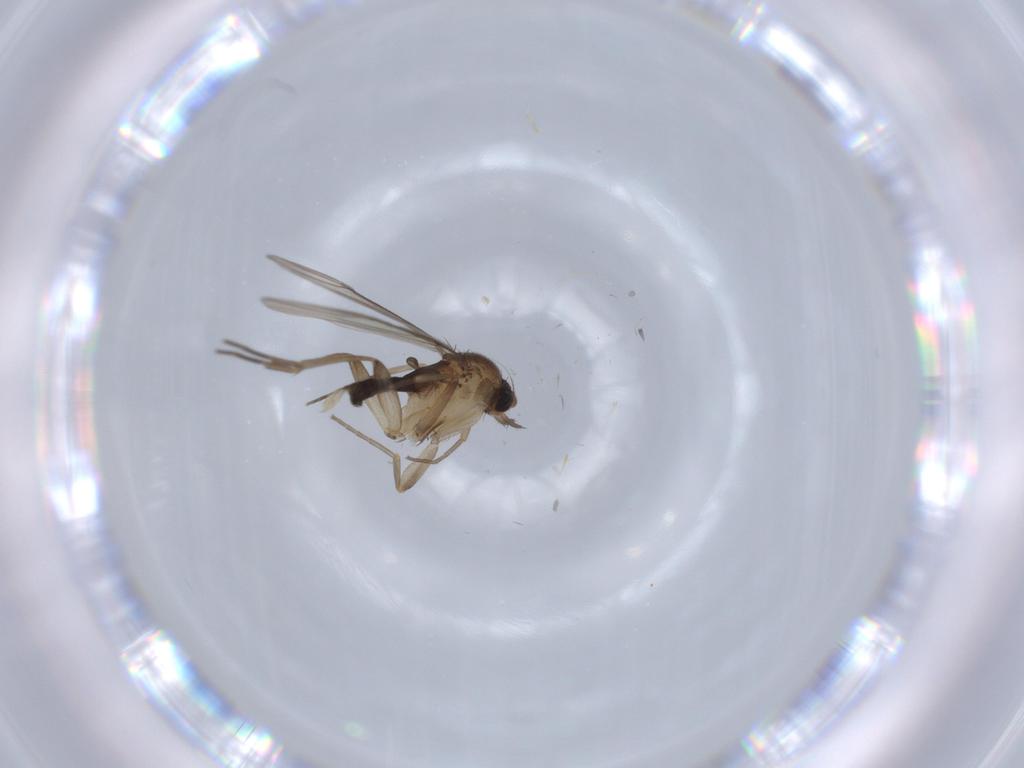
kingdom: Animalia
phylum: Arthropoda
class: Insecta
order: Diptera
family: Phoridae
